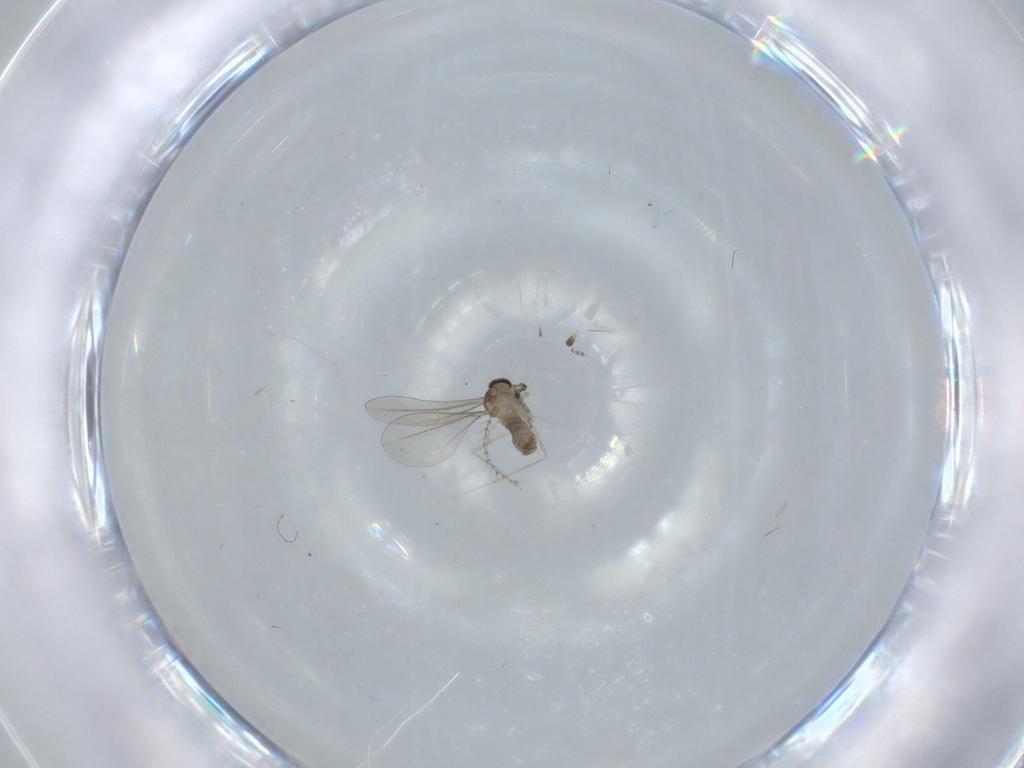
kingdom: Animalia
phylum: Arthropoda
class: Insecta
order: Diptera
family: Cecidomyiidae
